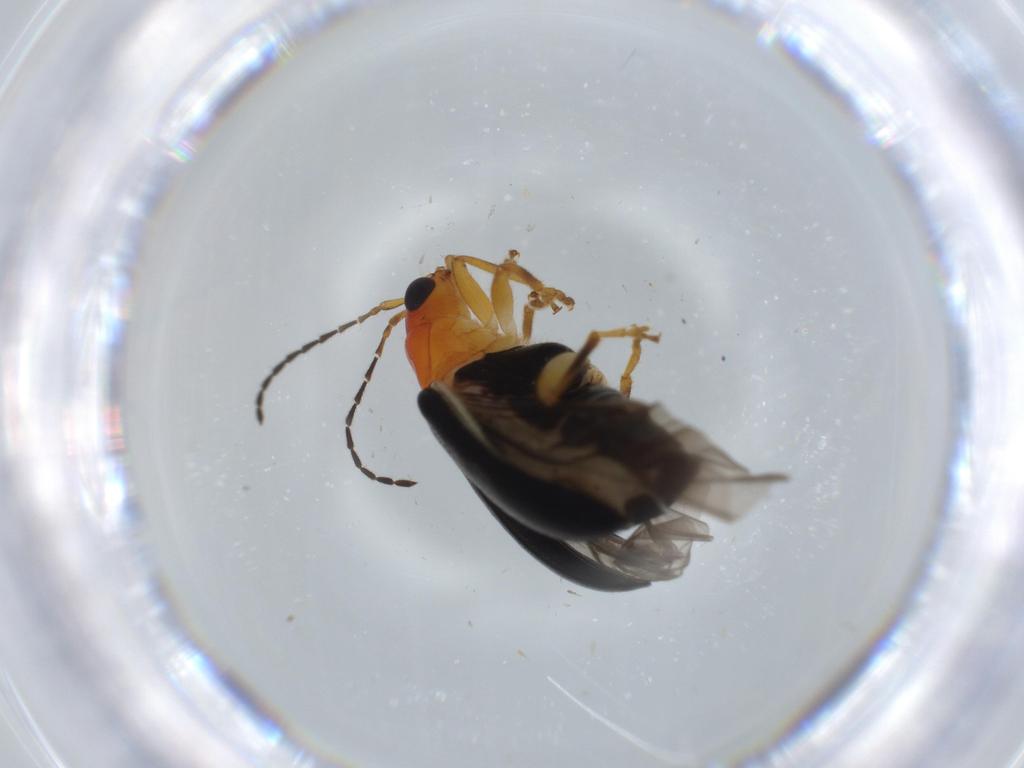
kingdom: Animalia
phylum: Arthropoda
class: Insecta
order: Coleoptera
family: Chrysomelidae
